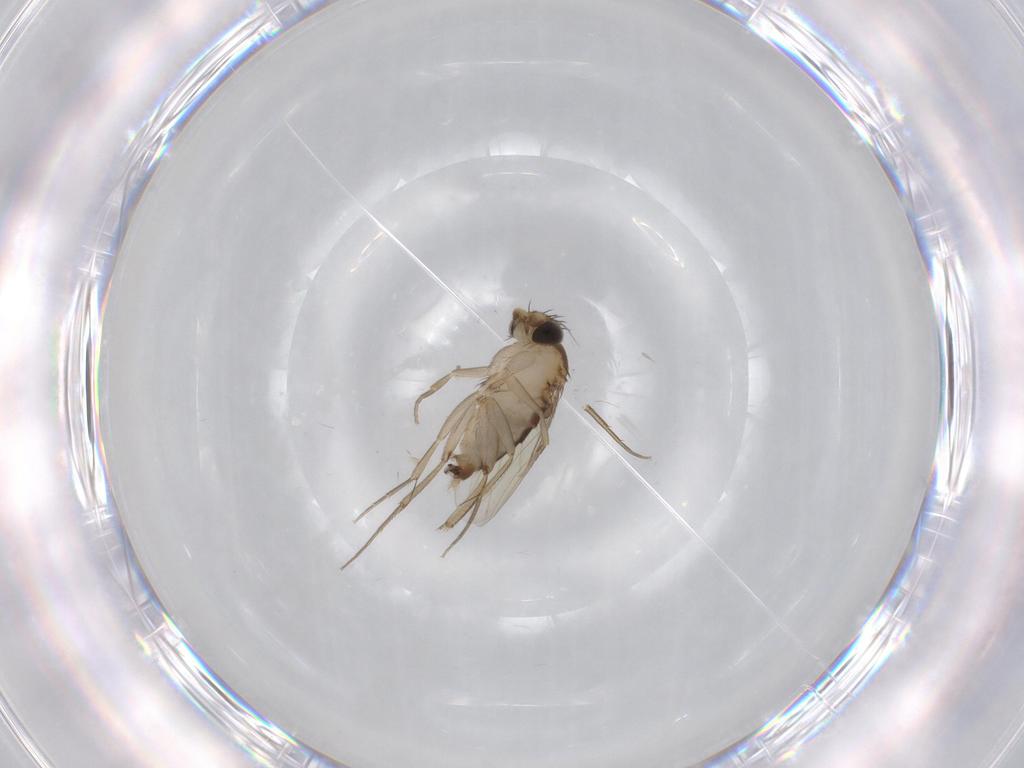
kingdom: Animalia
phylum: Arthropoda
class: Insecta
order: Diptera
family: Phoridae
